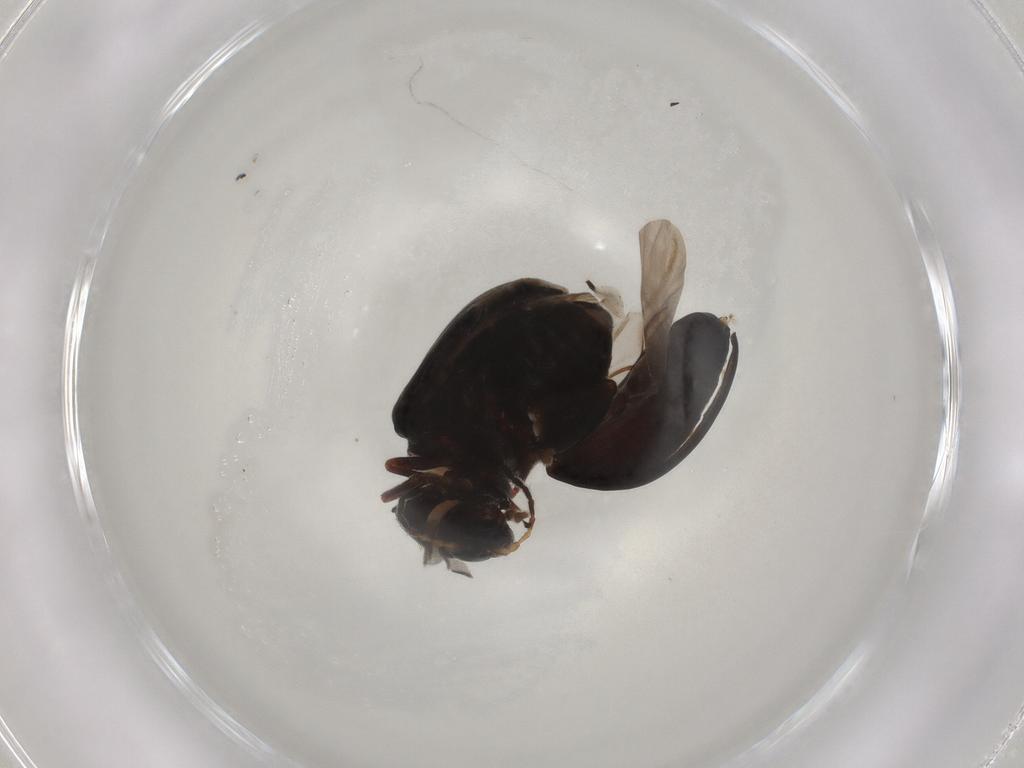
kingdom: Animalia
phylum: Arthropoda
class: Insecta
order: Coleoptera
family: Chrysomelidae
